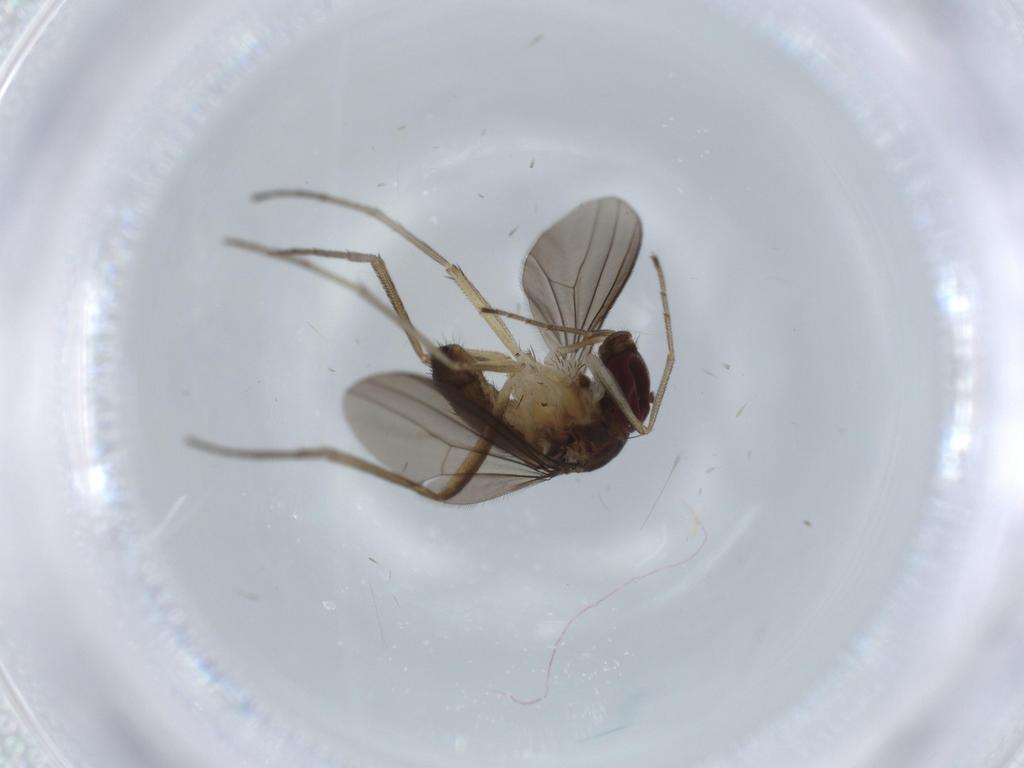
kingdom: Animalia
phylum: Arthropoda
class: Insecta
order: Diptera
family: Dolichopodidae
